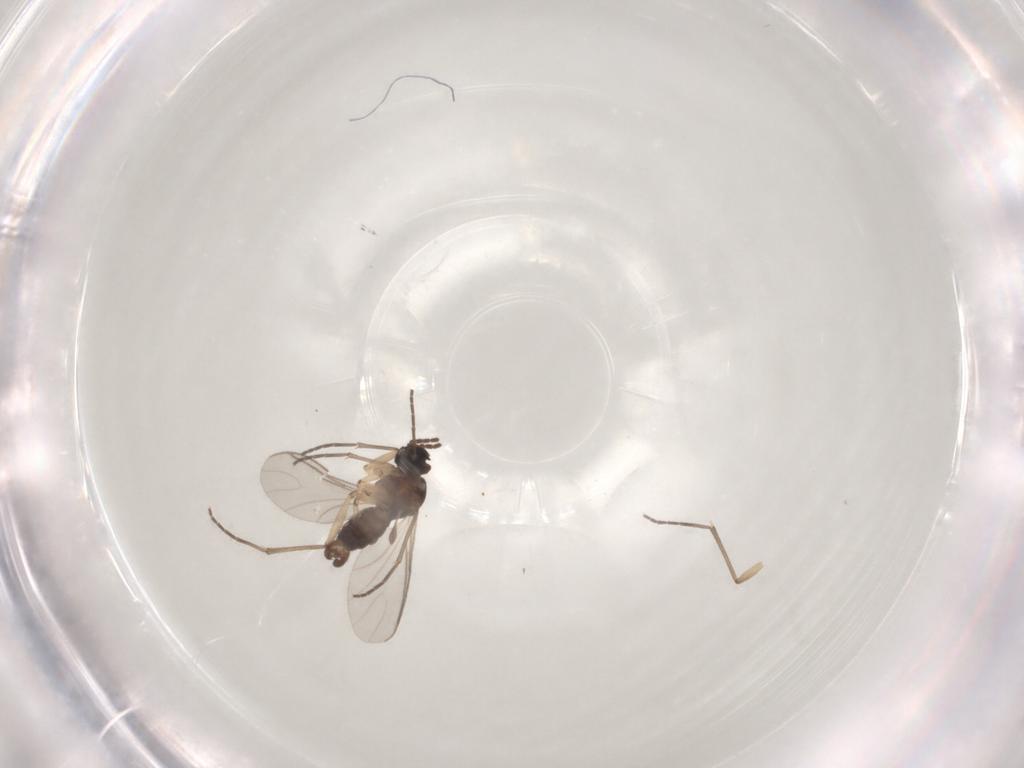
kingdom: Animalia
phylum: Arthropoda
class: Insecta
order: Diptera
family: Sciaridae
